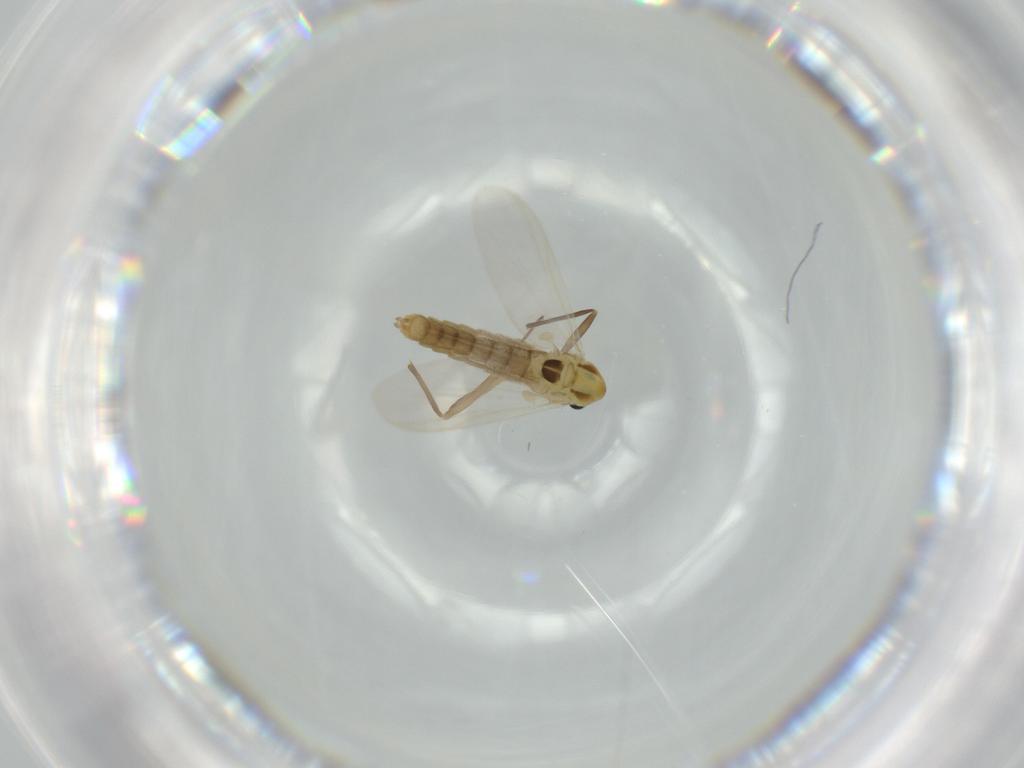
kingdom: Animalia
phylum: Arthropoda
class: Insecta
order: Diptera
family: Chironomidae
